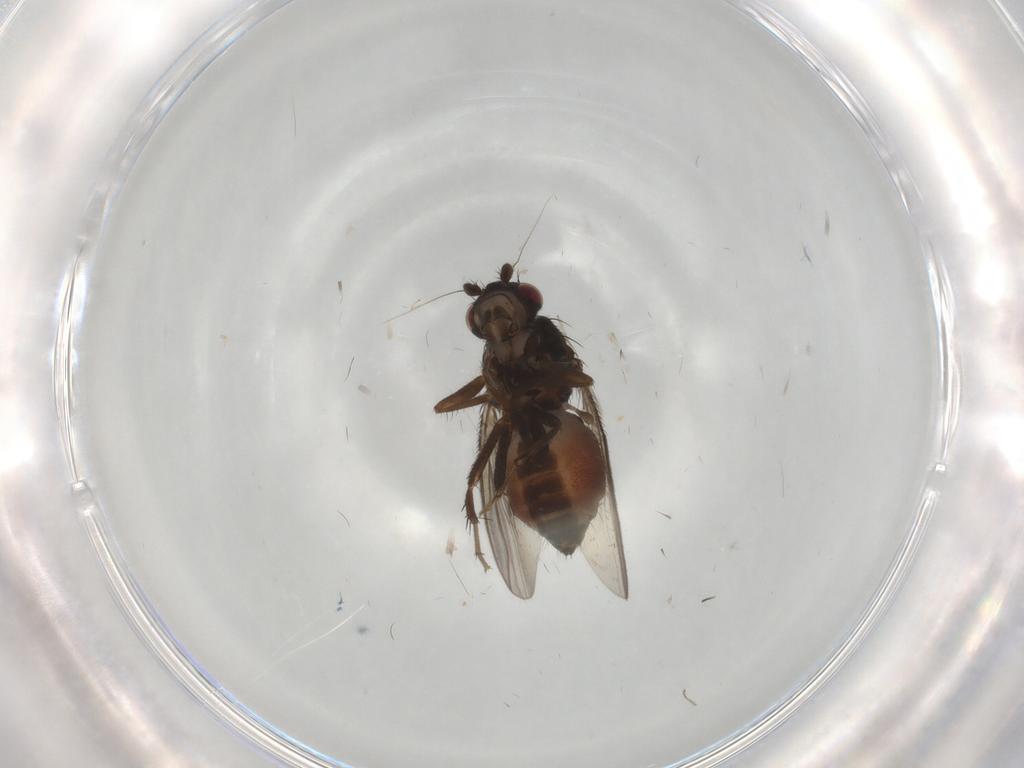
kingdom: Animalia
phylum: Arthropoda
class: Insecta
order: Diptera
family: Sphaeroceridae
